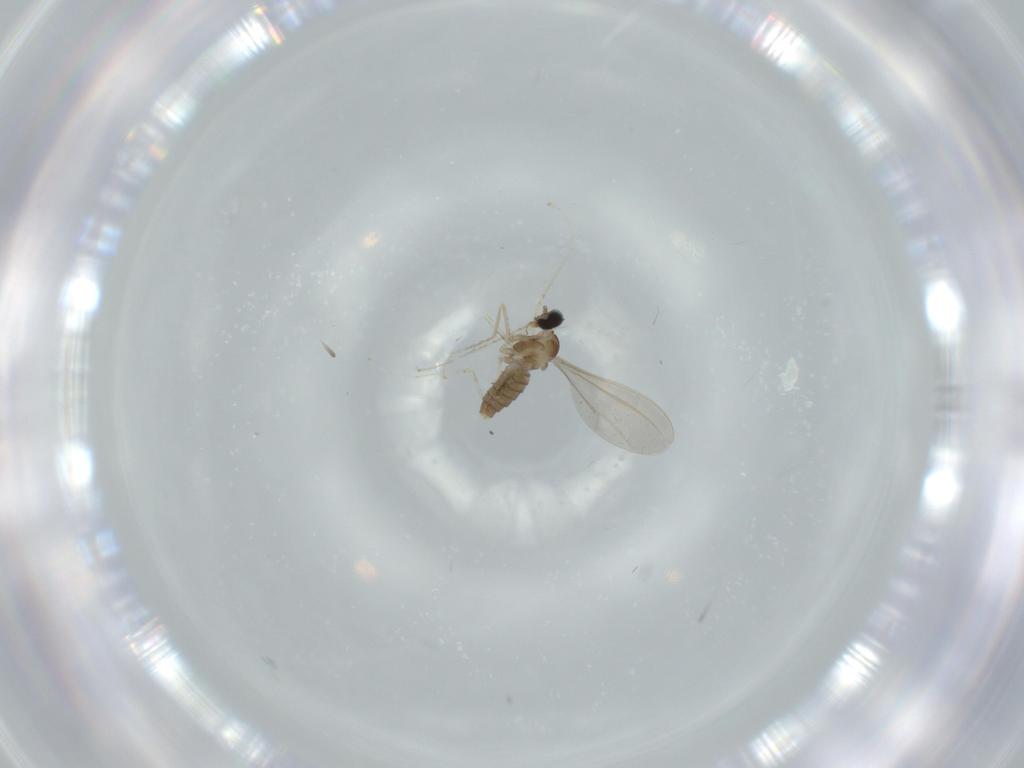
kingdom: Animalia
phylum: Arthropoda
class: Insecta
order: Diptera
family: Cecidomyiidae
